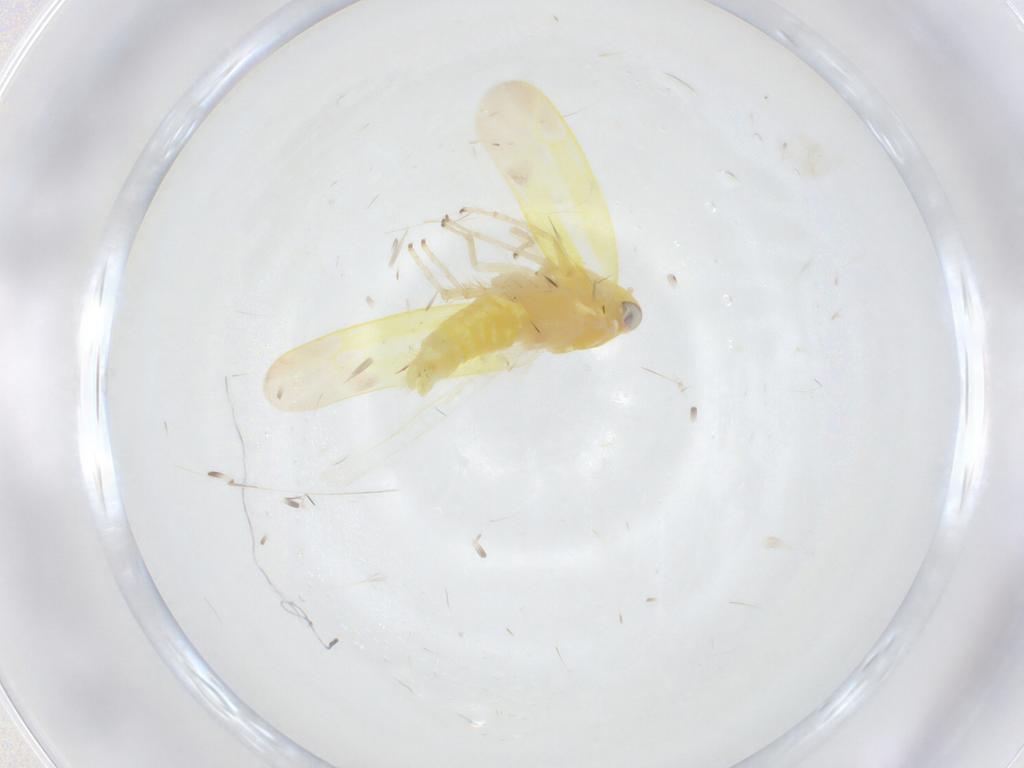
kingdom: Animalia
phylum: Arthropoda
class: Insecta
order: Hemiptera
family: Cicadellidae
